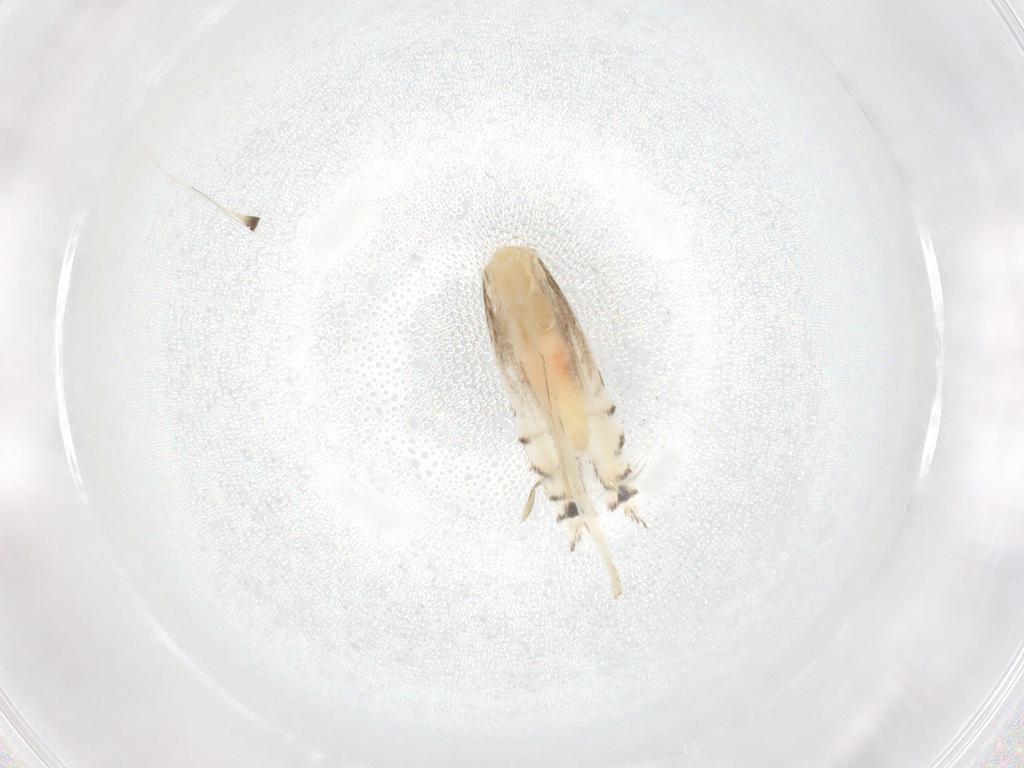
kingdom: Animalia
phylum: Arthropoda
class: Insecta
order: Lepidoptera
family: Gracillariidae
